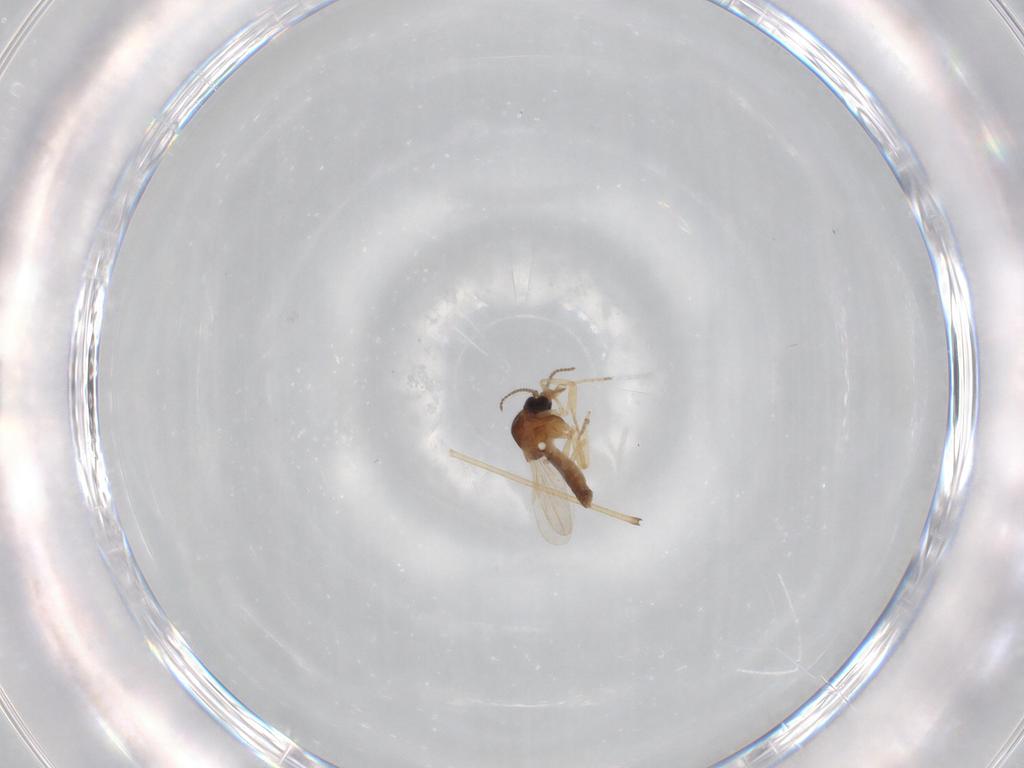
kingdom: Animalia
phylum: Arthropoda
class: Insecta
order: Diptera
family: Ceratopogonidae
